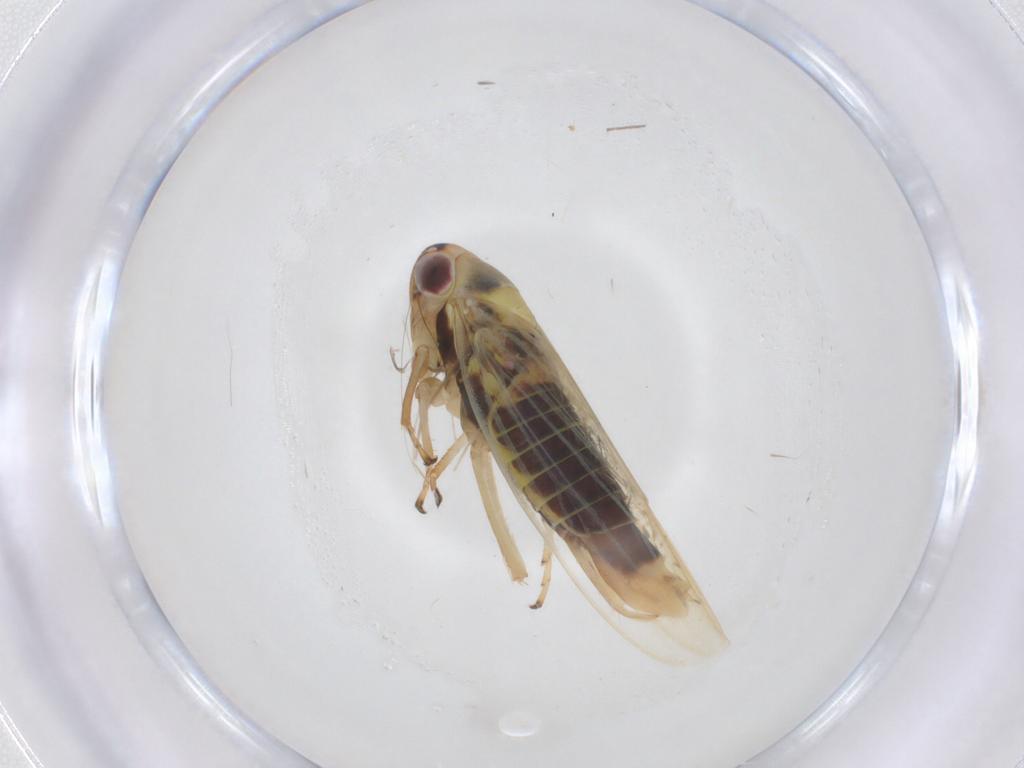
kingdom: Animalia
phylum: Arthropoda
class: Insecta
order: Hemiptera
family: Cicadellidae
